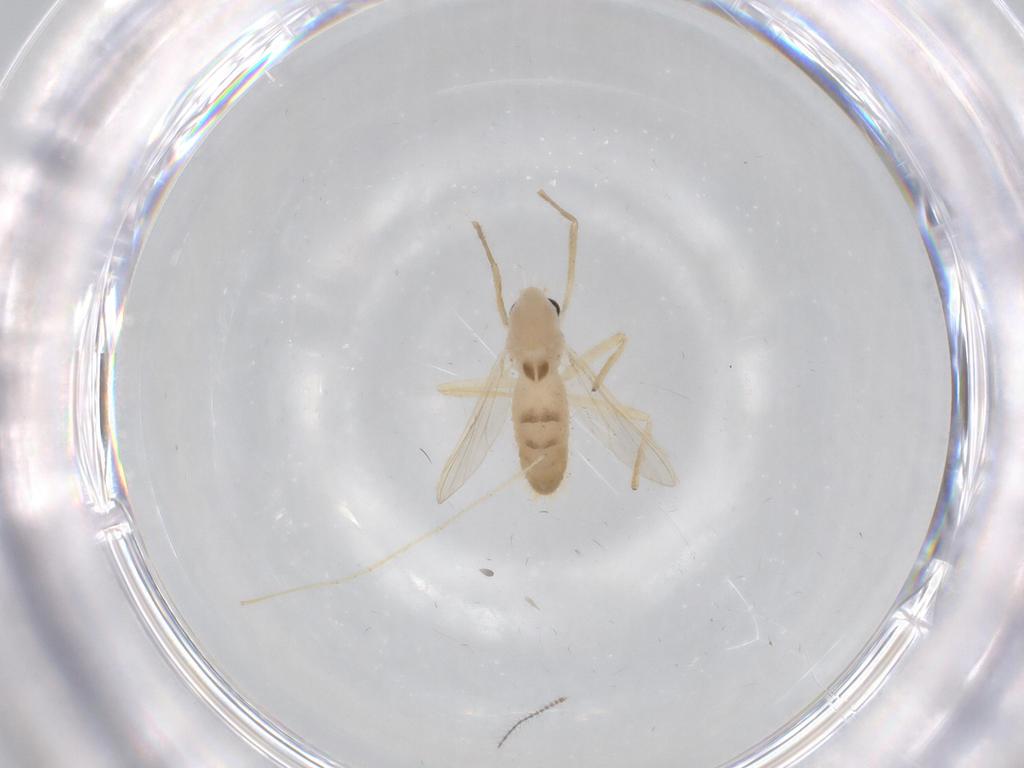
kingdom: Animalia
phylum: Arthropoda
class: Insecta
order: Diptera
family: Chironomidae
